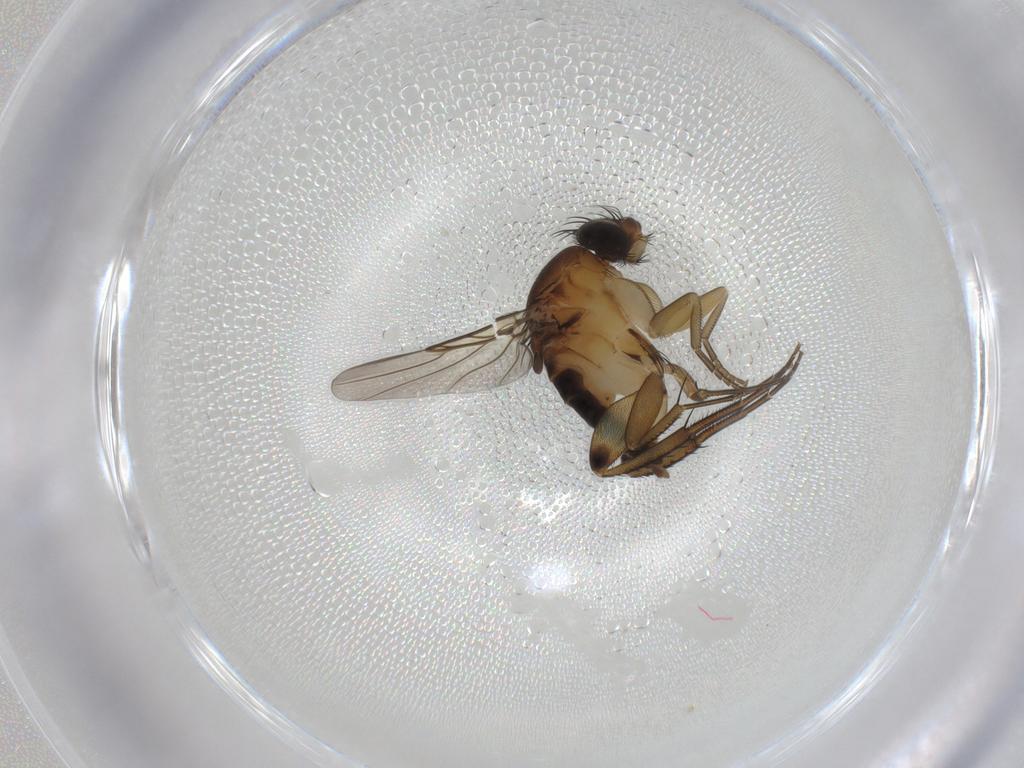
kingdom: Animalia
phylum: Arthropoda
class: Insecta
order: Diptera
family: Phoridae
